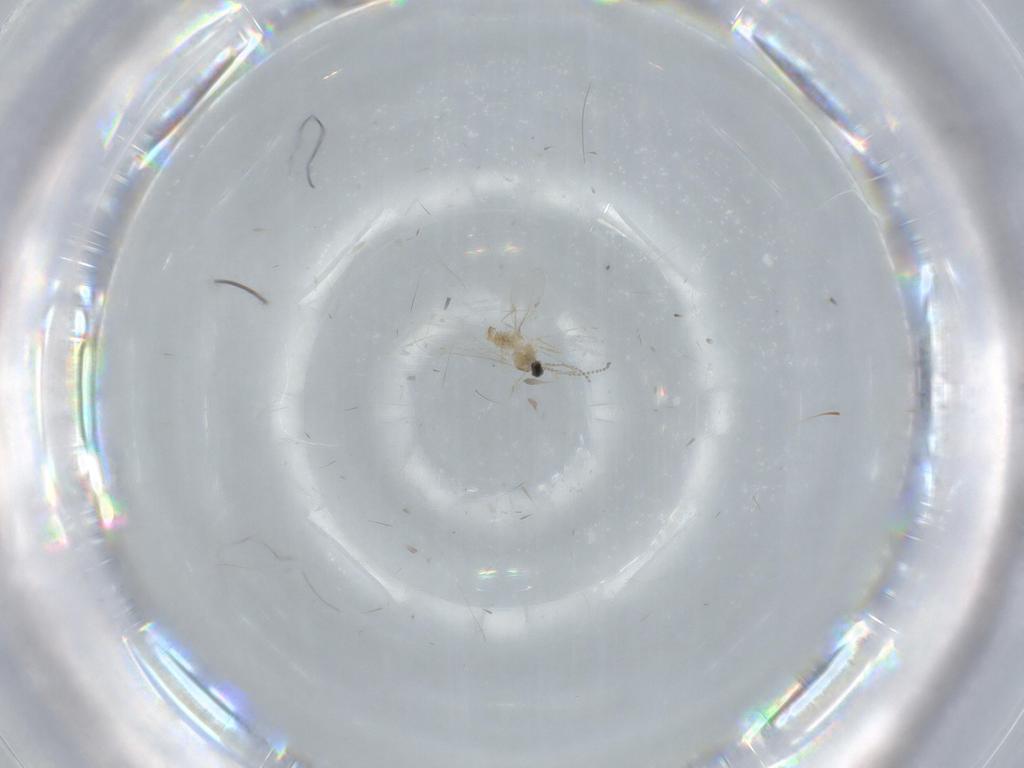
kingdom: Animalia
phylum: Arthropoda
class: Insecta
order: Diptera
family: Cecidomyiidae
